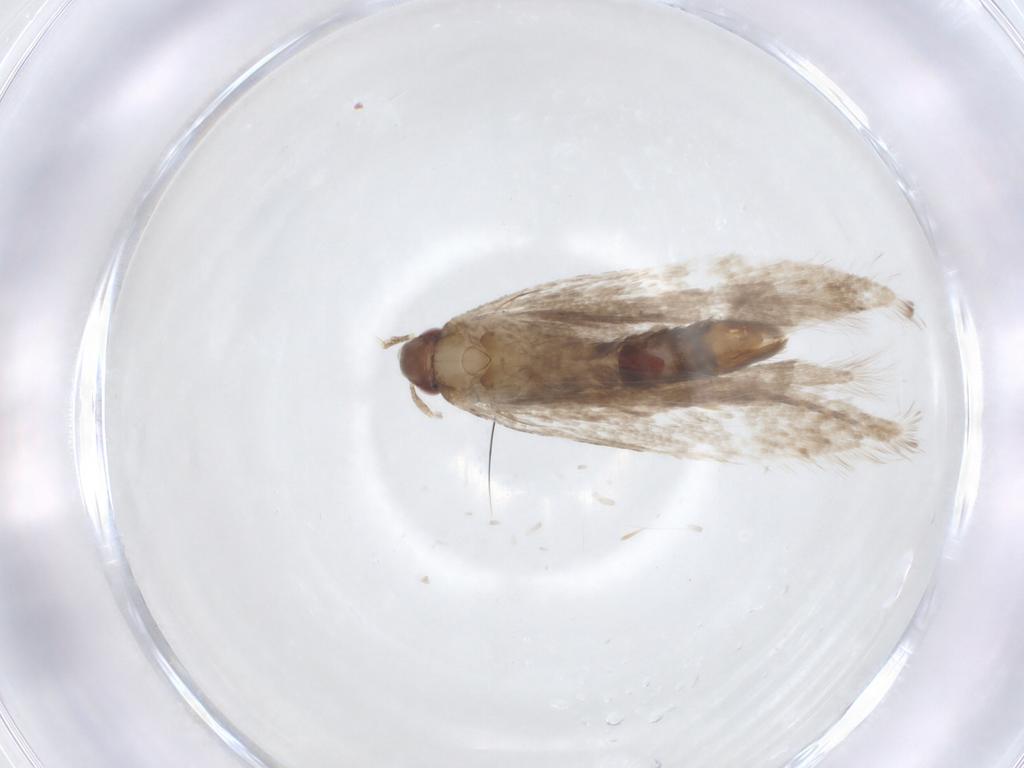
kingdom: Animalia
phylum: Arthropoda
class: Insecta
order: Lepidoptera
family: Gelechiidae
